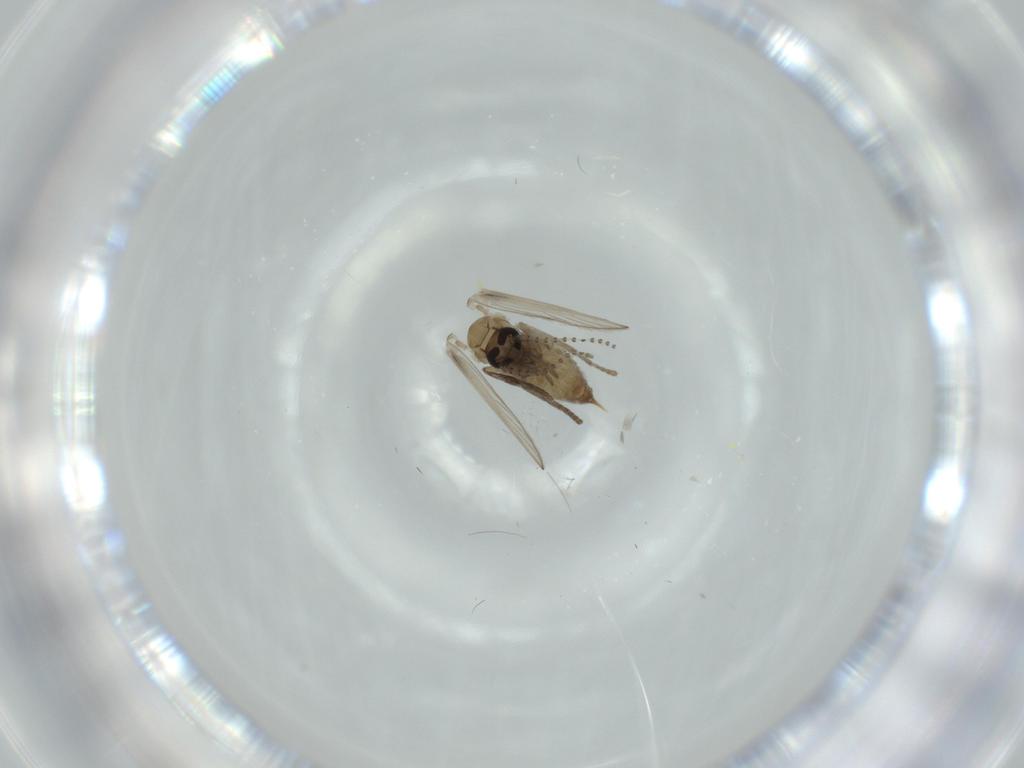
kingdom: Animalia
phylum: Arthropoda
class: Insecta
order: Diptera
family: Psychodidae
